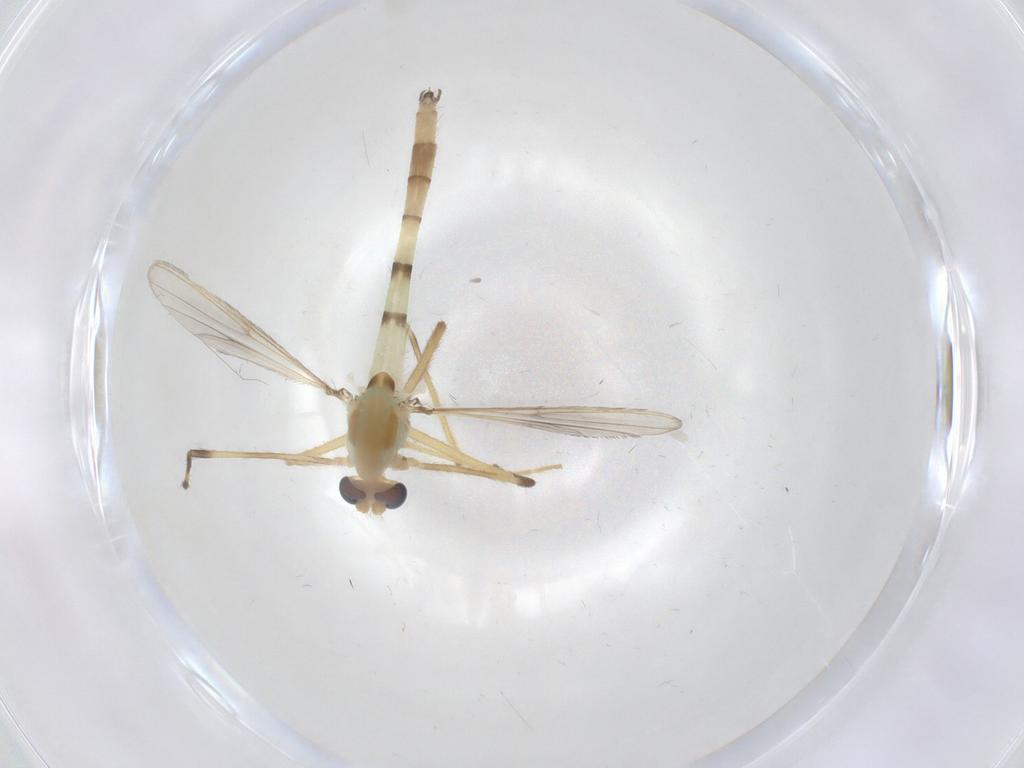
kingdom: Animalia
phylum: Arthropoda
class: Insecta
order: Diptera
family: Chironomidae
